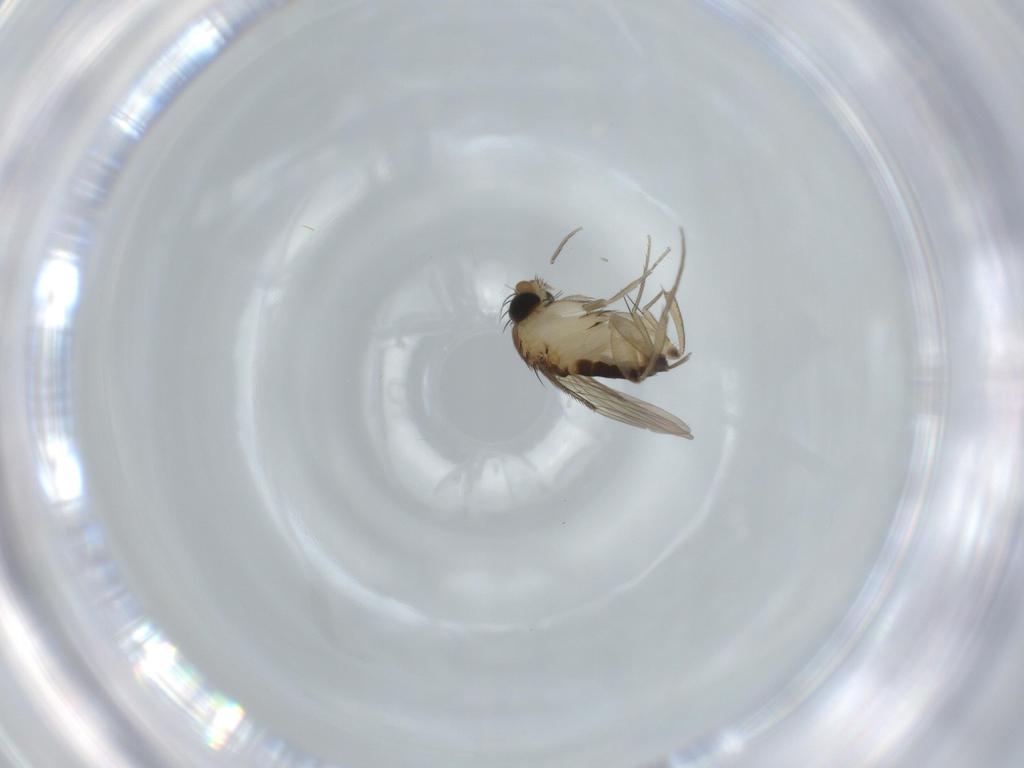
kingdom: Animalia
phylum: Arthropoda
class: Insecta
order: Diptera
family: Phoridae
